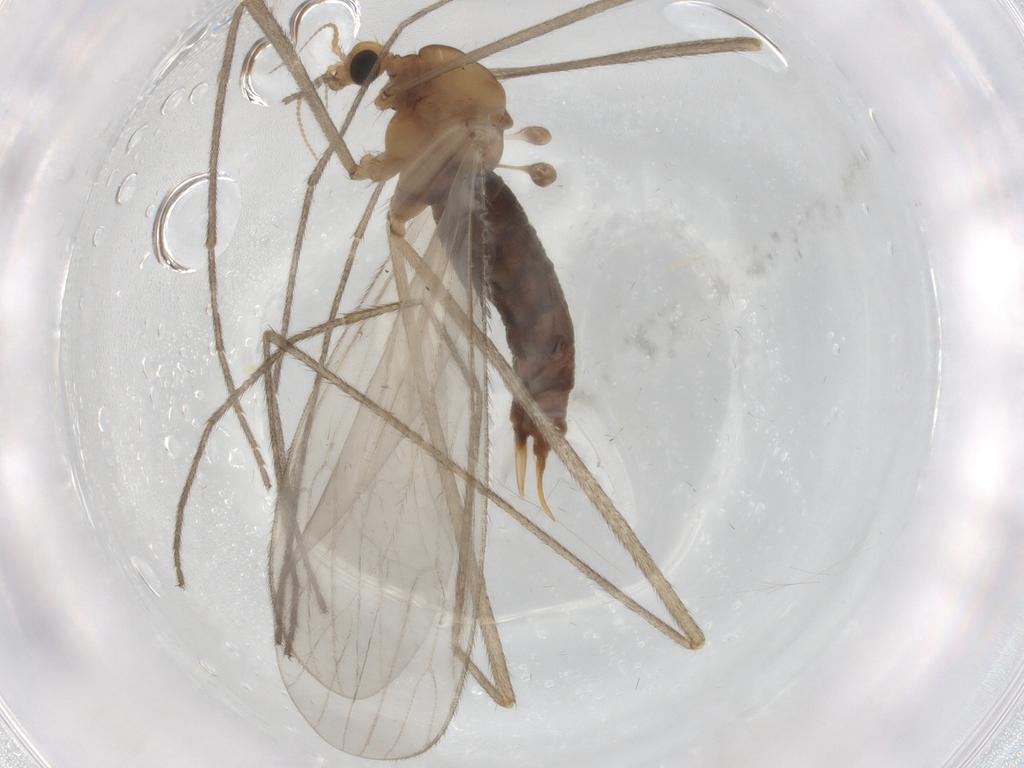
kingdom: Animalia
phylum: Arthropoda
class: Insecta
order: Diptera
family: Limoniidae
